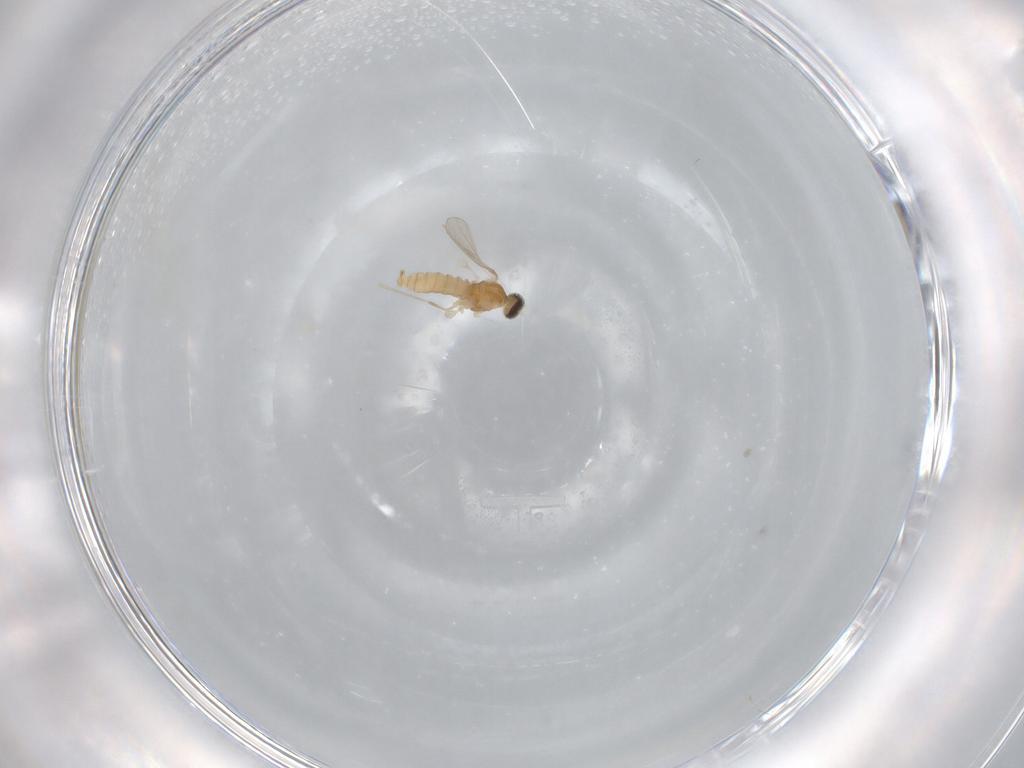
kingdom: Animalia
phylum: Arthropoda
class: Insecta
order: Diptera
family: Cecidomyiidae
